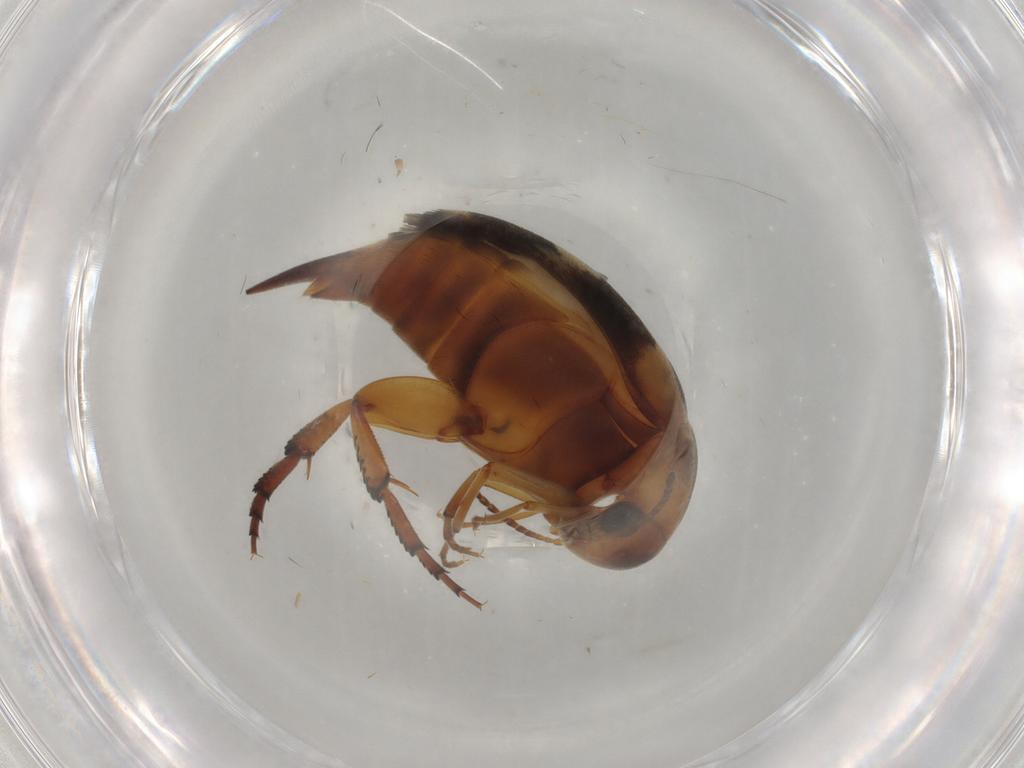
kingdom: Animalia
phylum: Arthropoda
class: Insecta
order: Coleoptera
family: Mordellidae
